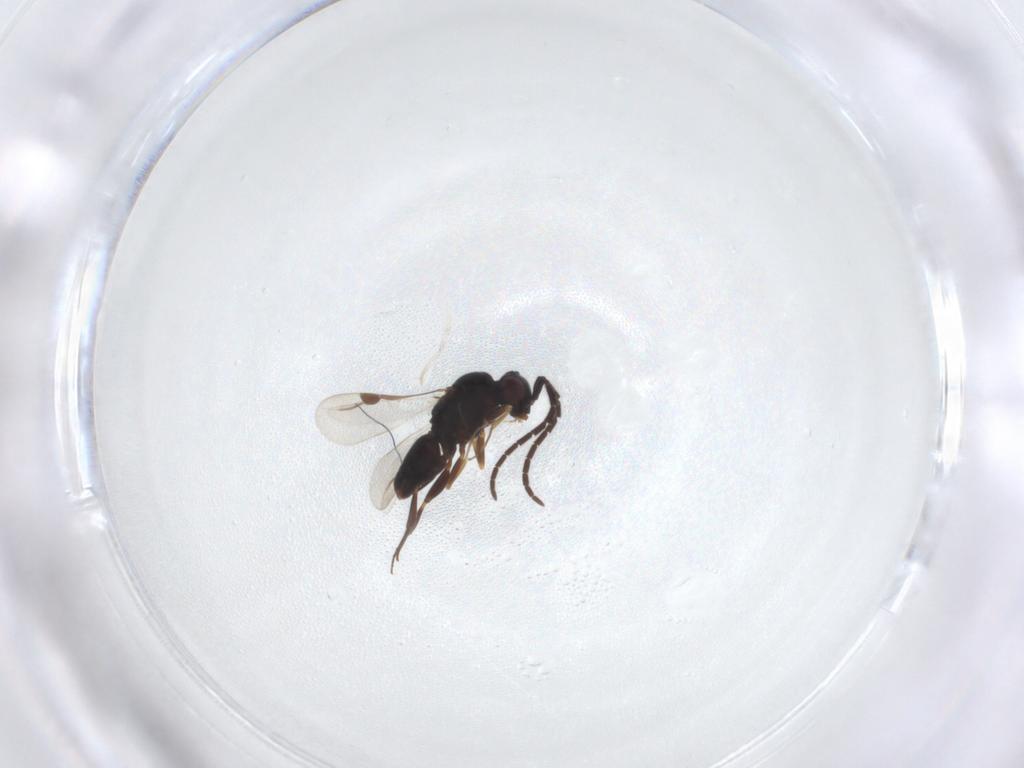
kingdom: Animalia
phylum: Arthropoda
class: Insecta
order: Hymenoptera
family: Megaspilidae
